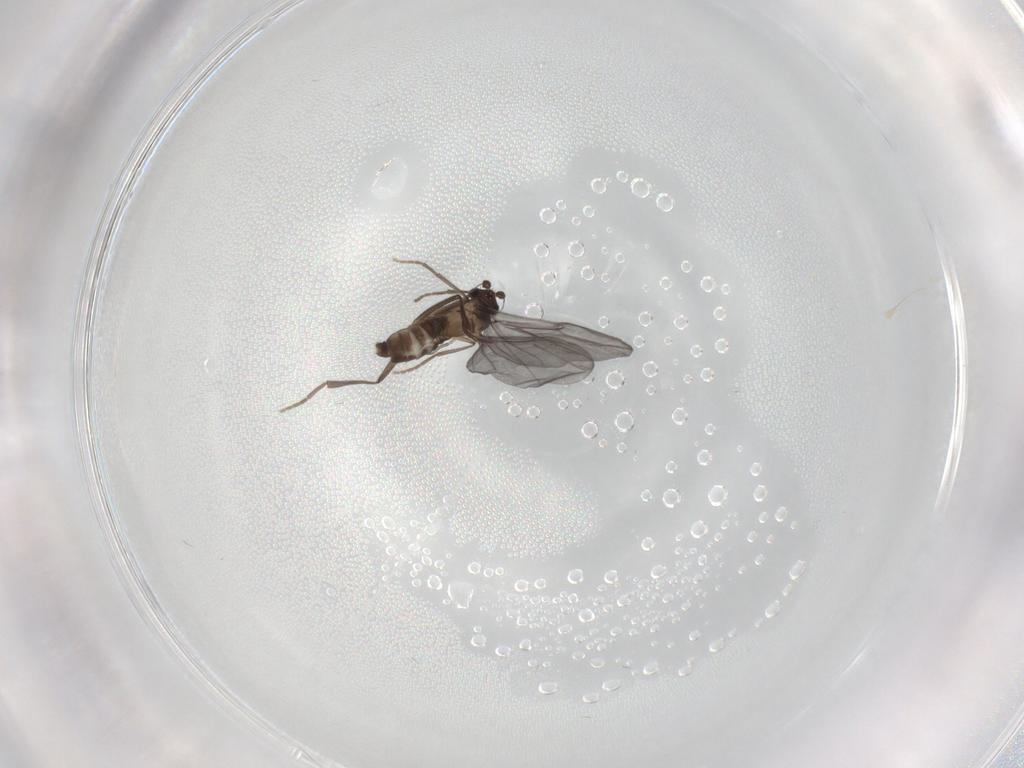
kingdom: Animalia
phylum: Arthropoda
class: Insecta
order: Diptera
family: Phoridae
